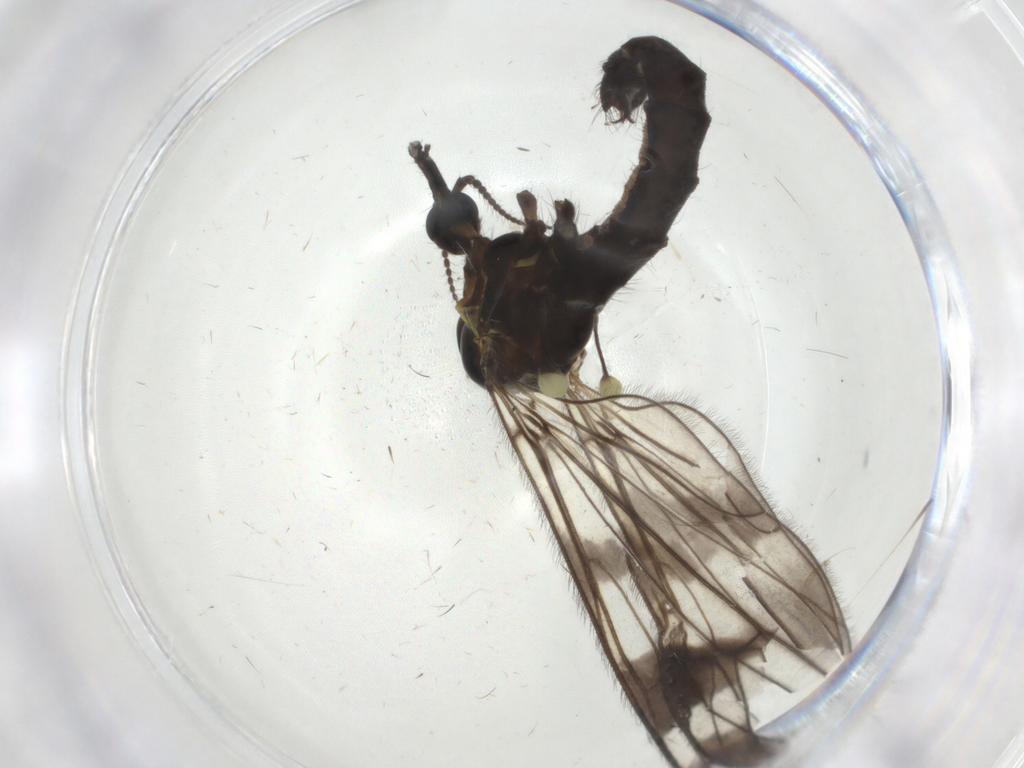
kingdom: Animalia
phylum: Arthropoda
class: Insecta
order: Diptera
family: Limoniidae
